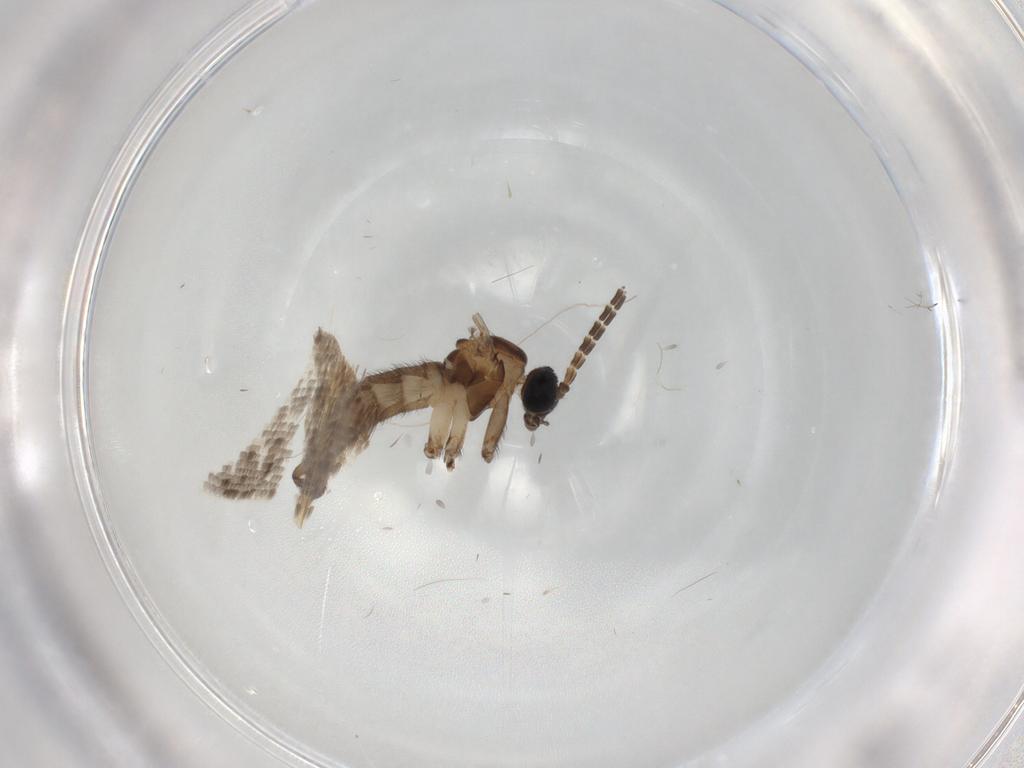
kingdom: Animalia
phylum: Arthropoda
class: Insecta
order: Diptera
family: Sciaridae
